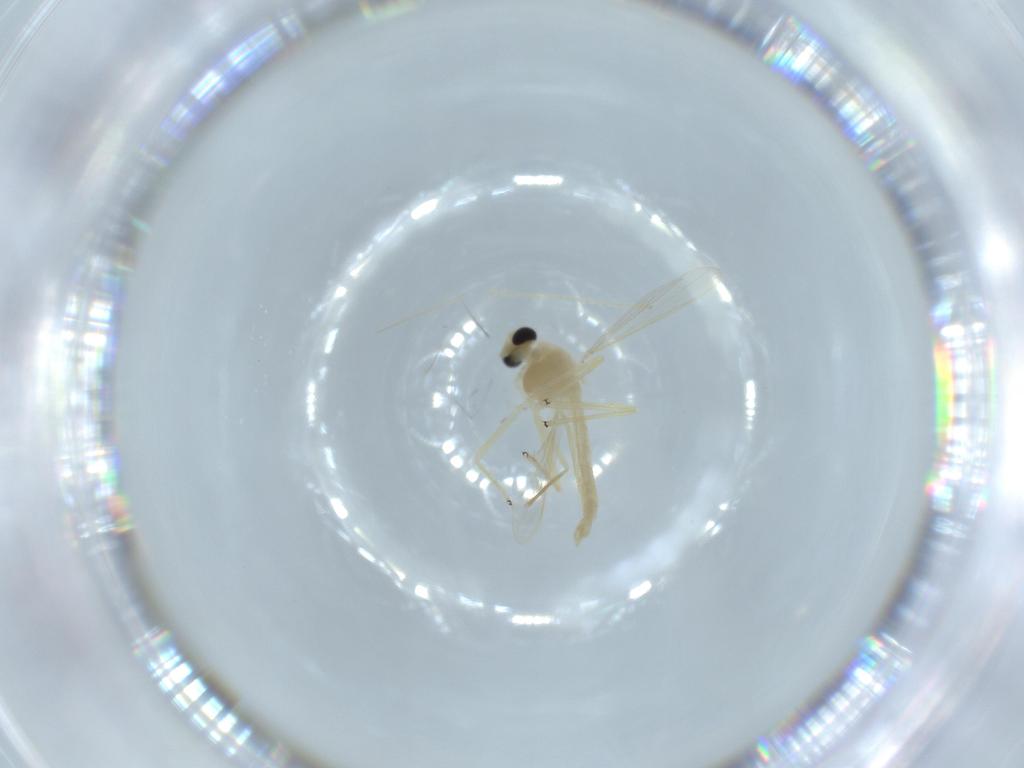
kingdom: Animalia
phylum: Arthropoda
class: Insecta
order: Diptera
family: Chironomidae
